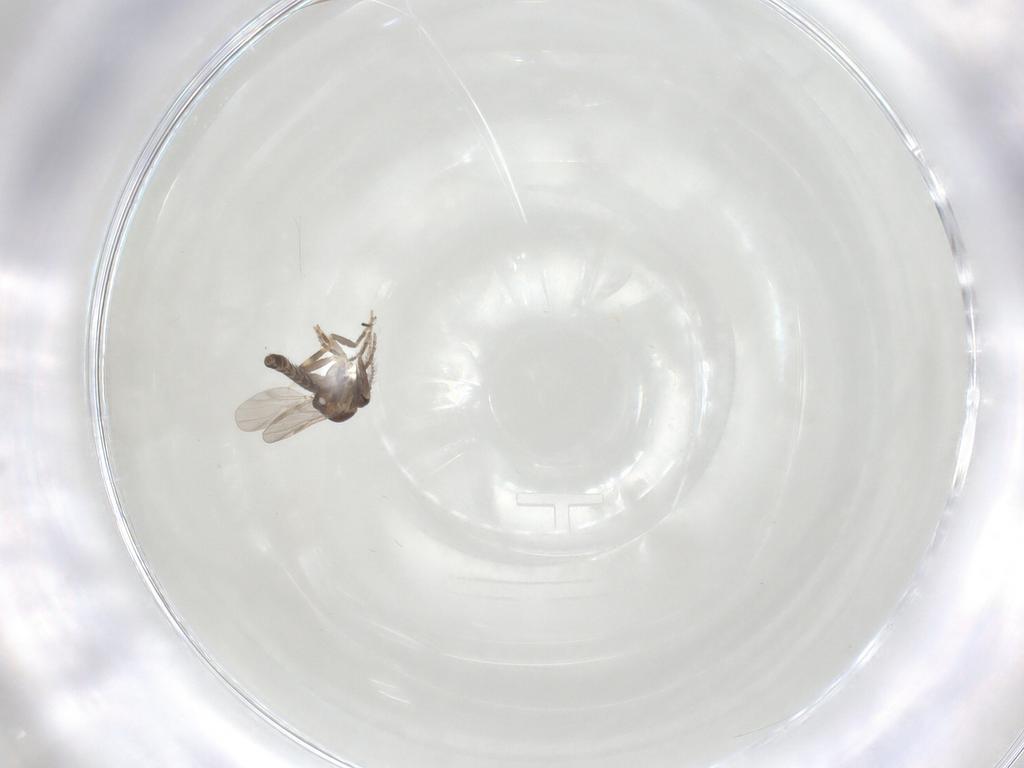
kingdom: Animalia
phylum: Arthropoda
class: Insecta
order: Diptera
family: Ceratopogonidae
